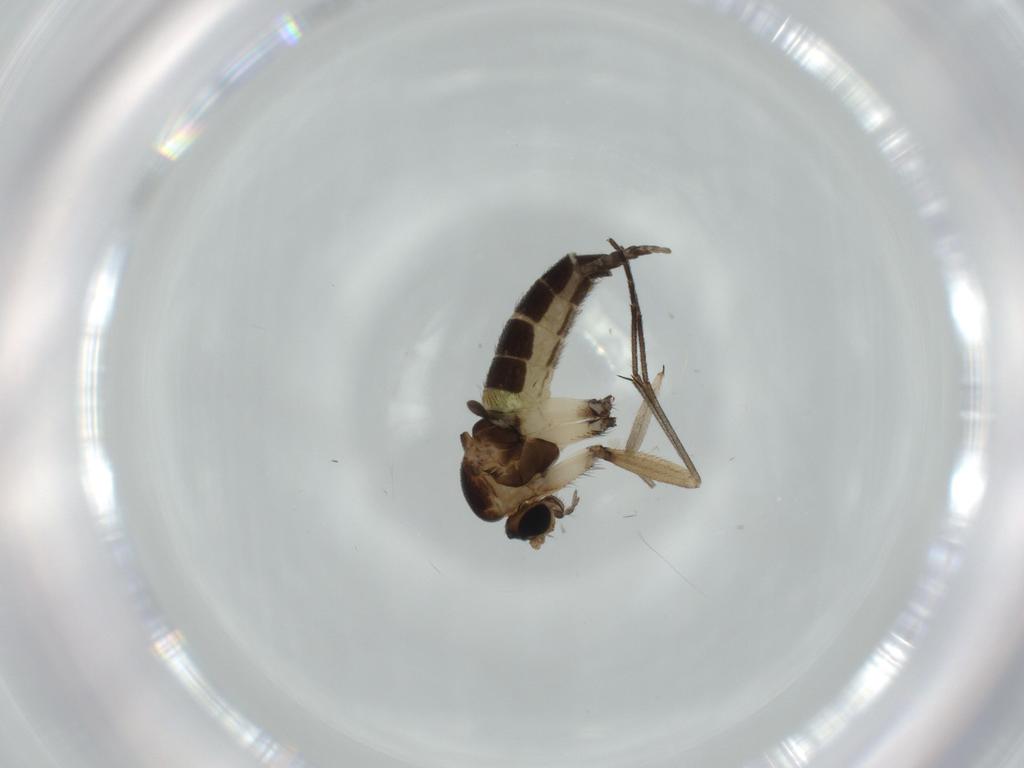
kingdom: Animalia
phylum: Arthropoda
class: Insecta
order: Diptera
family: Sciaridae
